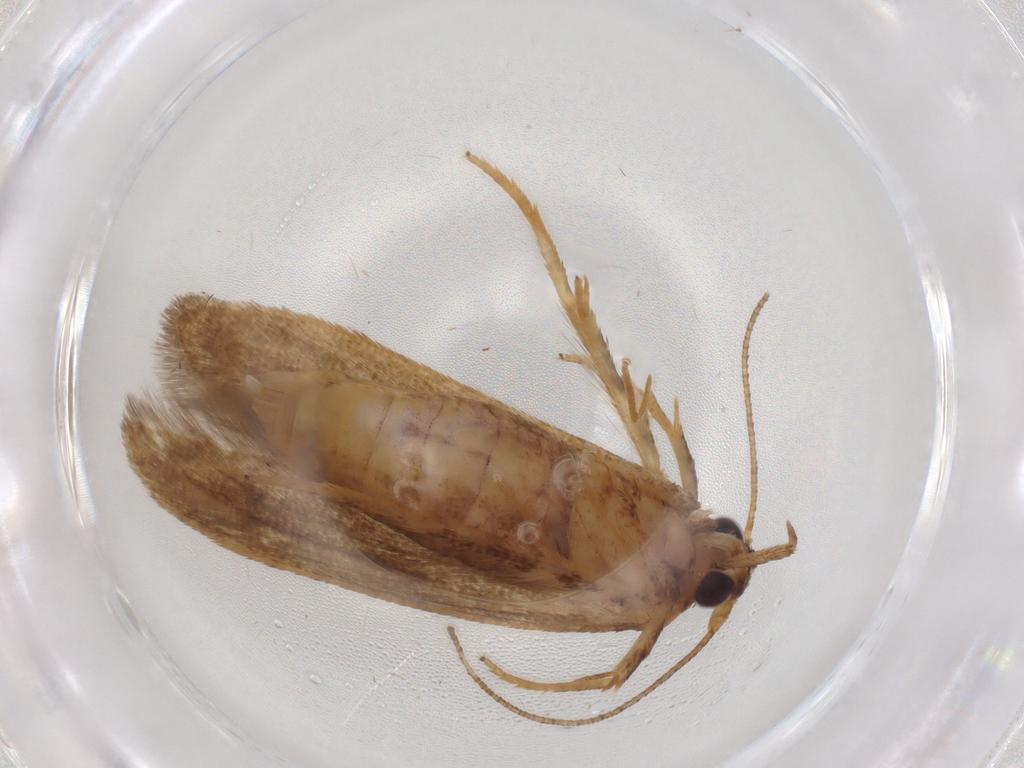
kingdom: Animalia
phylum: Arthropoda
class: Insecta
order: Lepidoptera
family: Blastobasidae
